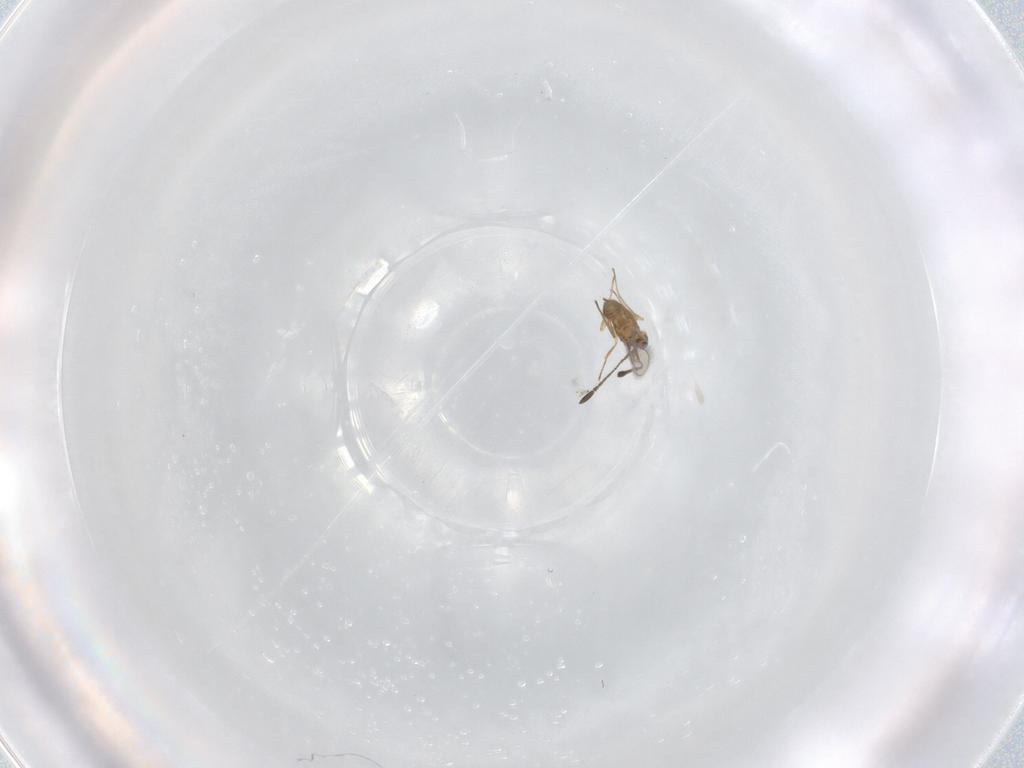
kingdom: Animalia
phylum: Arthropoda
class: Insecta
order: Hymenoptera
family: Mymaridae
